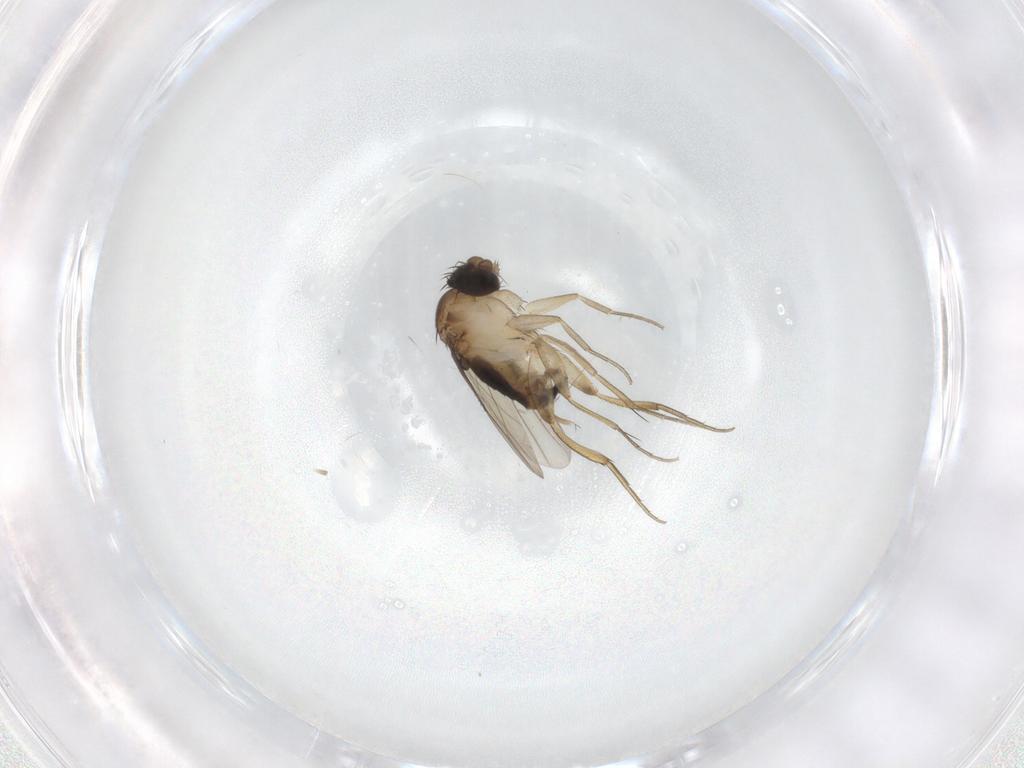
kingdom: Animalia
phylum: Arthropoda
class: Insecta
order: Diptera
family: Phoridae
